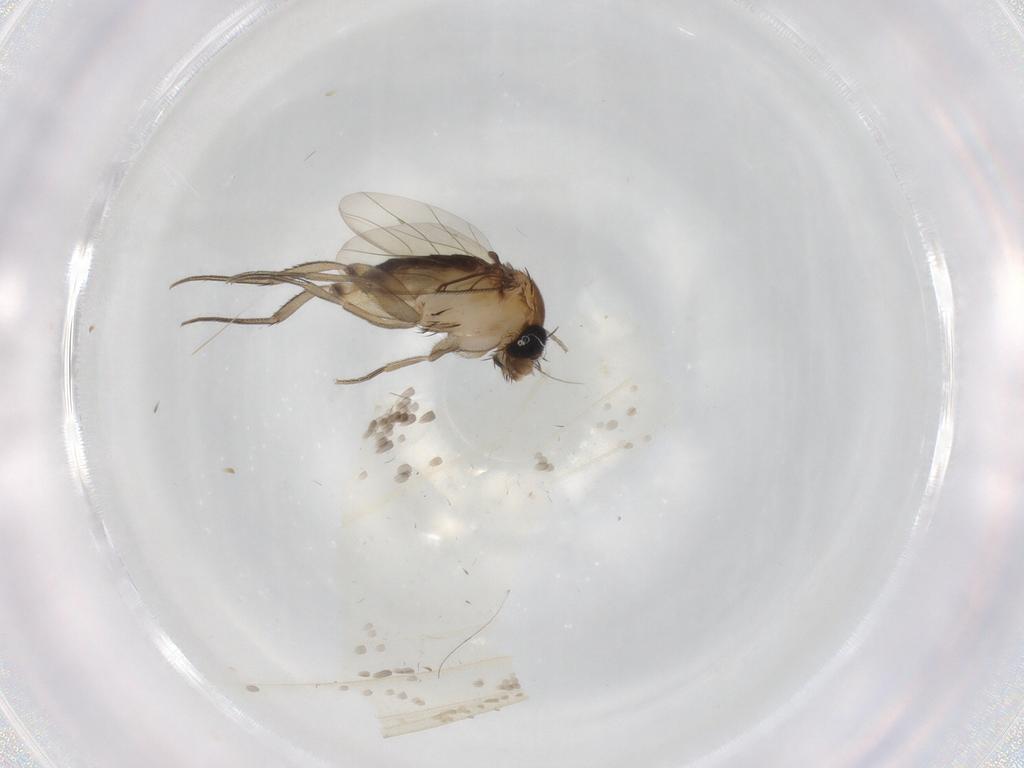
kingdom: Animalia
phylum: Arthropoda
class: Insecta
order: Diptera
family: Phoridae
